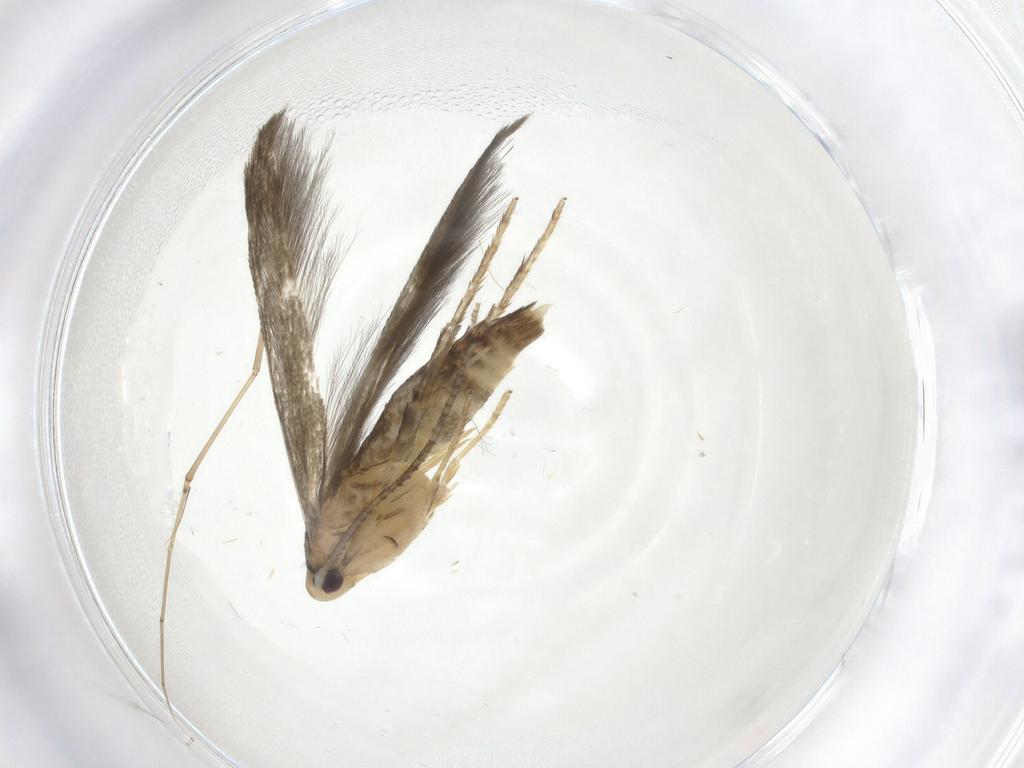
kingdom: Animalia
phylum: Arthropoda
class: Insecta
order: Lepidoptera
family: Stathmopodidae
